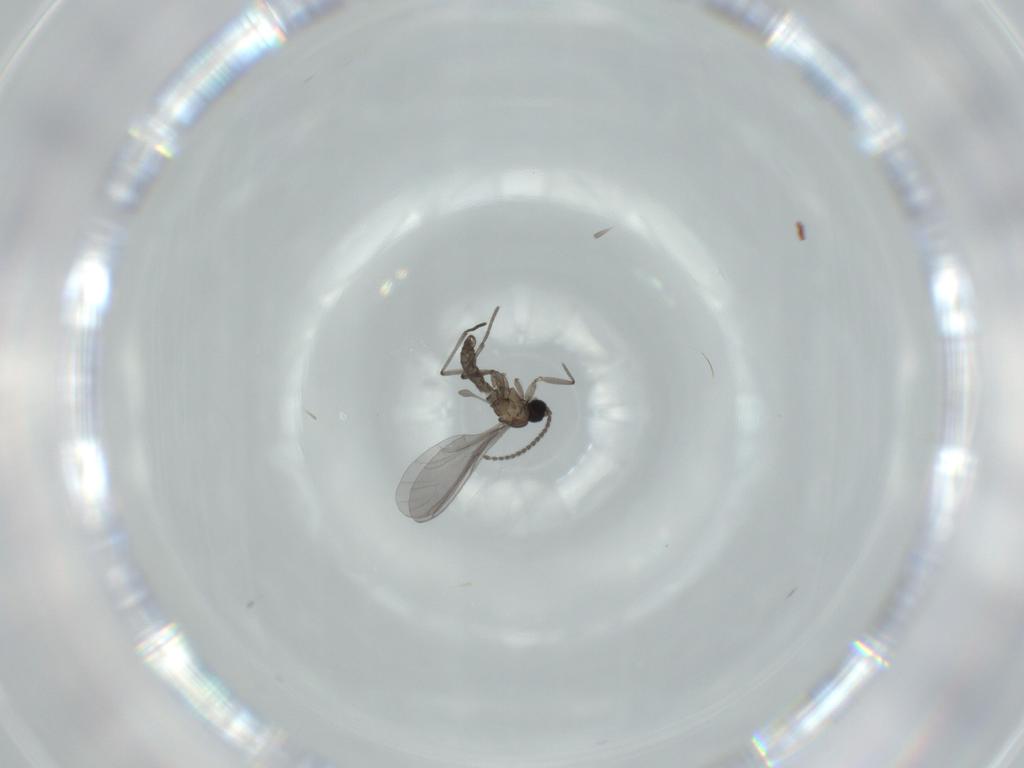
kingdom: Animalia
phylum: Arthropoda
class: Insecta
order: Diptera
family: Sciaridae
